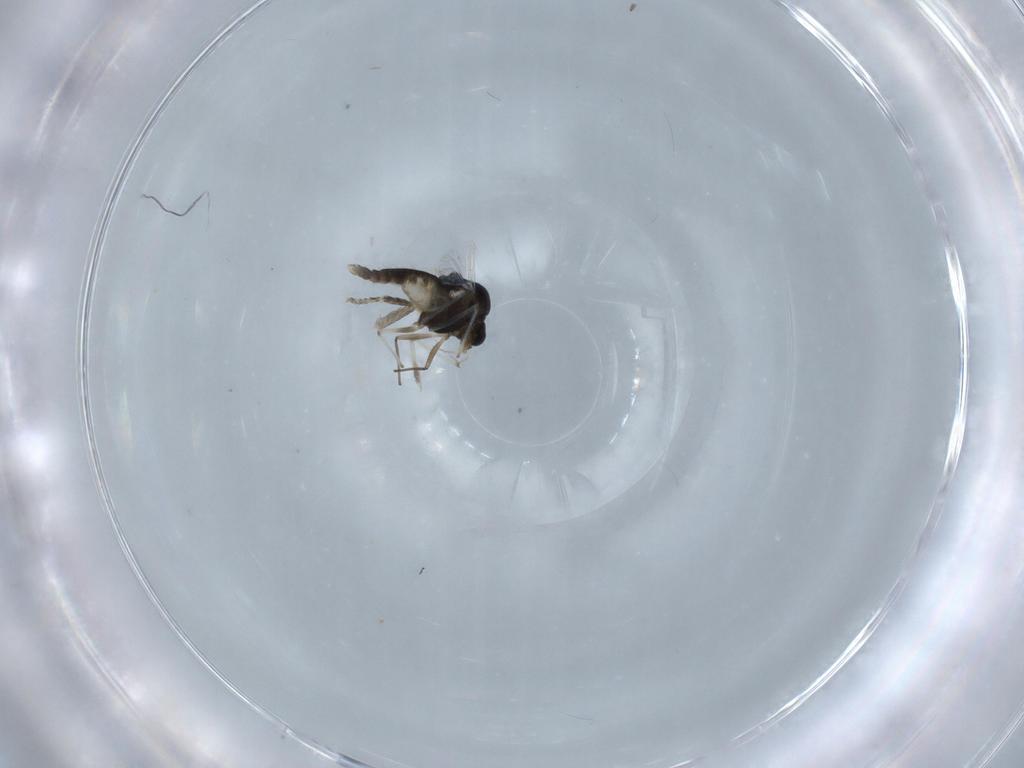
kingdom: Animalia
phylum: Arthropoda
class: Insecta
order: Diptera
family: Chironomidae
